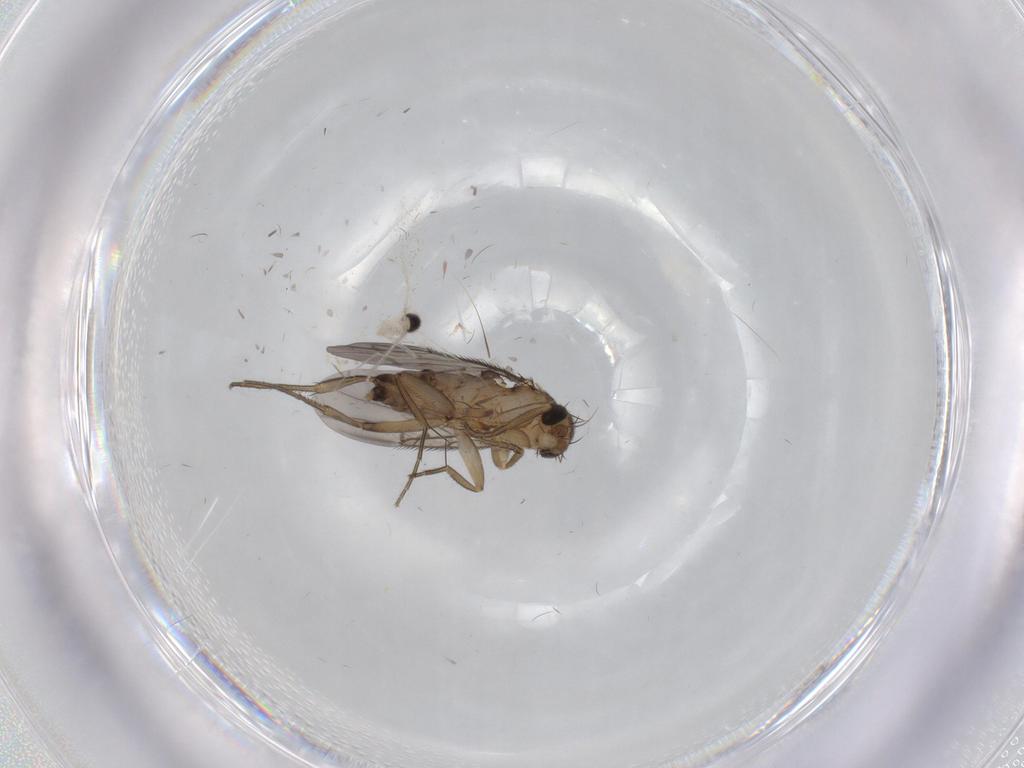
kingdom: Animalia
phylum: Arthropoda
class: Insecta
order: Diptera
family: Phoridae
